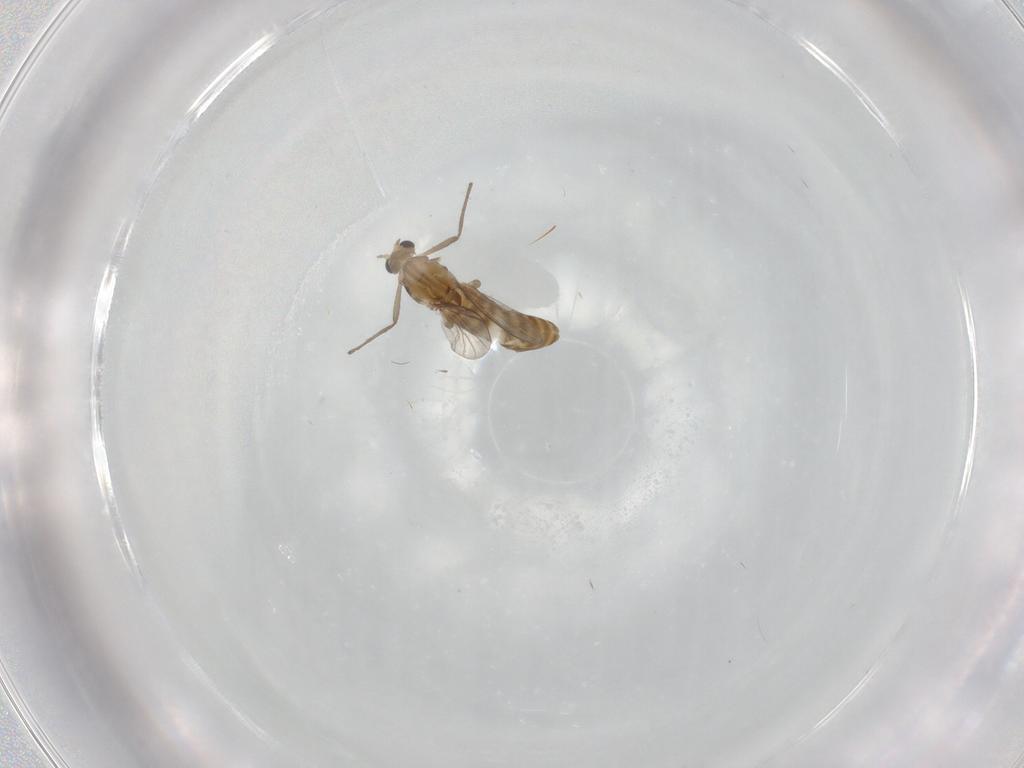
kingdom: Animalia
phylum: Arthropoda
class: Insecta
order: Diptera
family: Chironomidae
